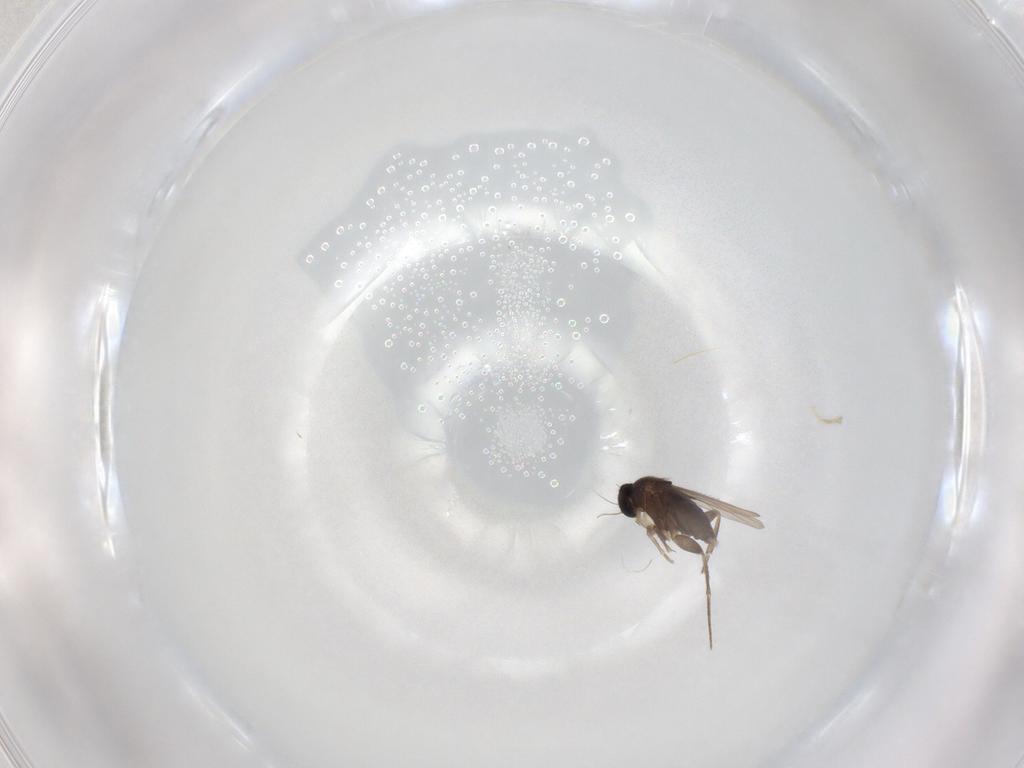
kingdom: Animalia
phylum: Arthropoda
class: Insecta
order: Diptera
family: Phoridae
